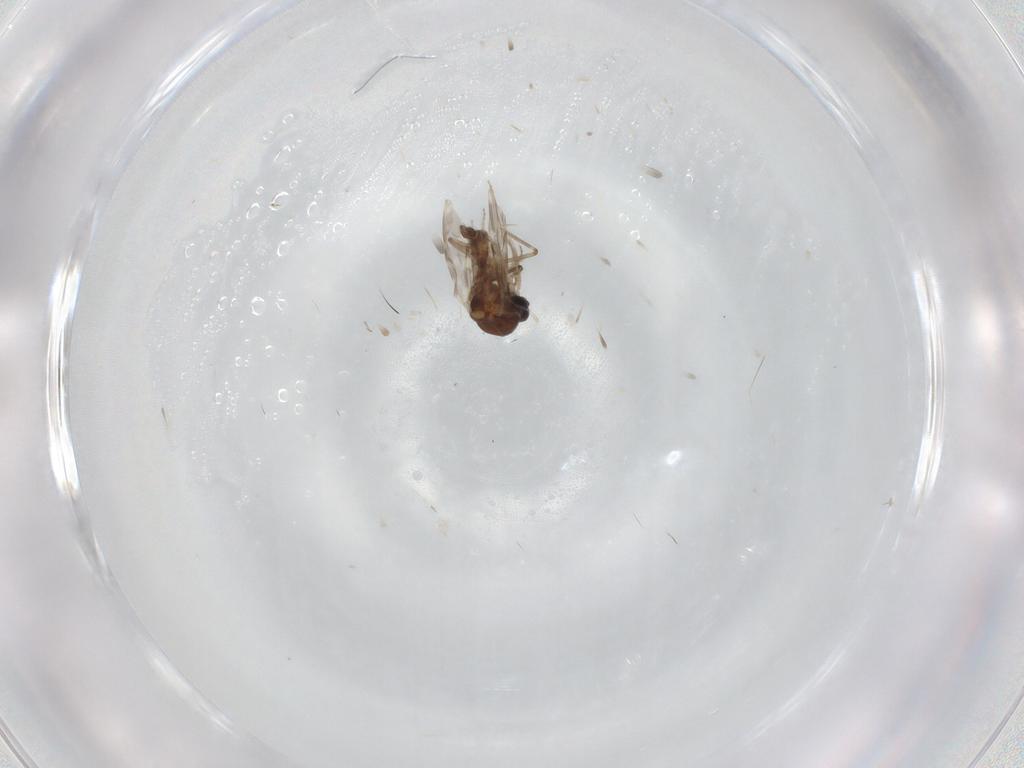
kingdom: Animalia
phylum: Arthropoda
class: Insecta
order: Diptera
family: Ceratopogonidae
